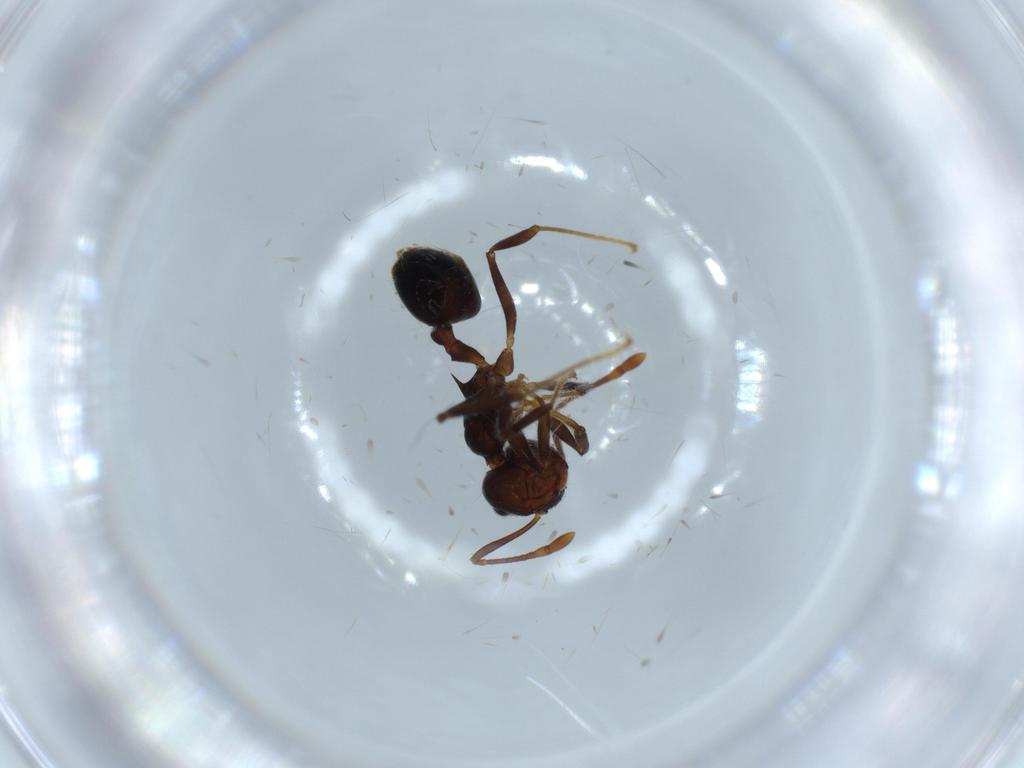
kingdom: Animalia
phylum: Arthropoda
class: Insecta
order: Hymenoptera
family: Formicidae
